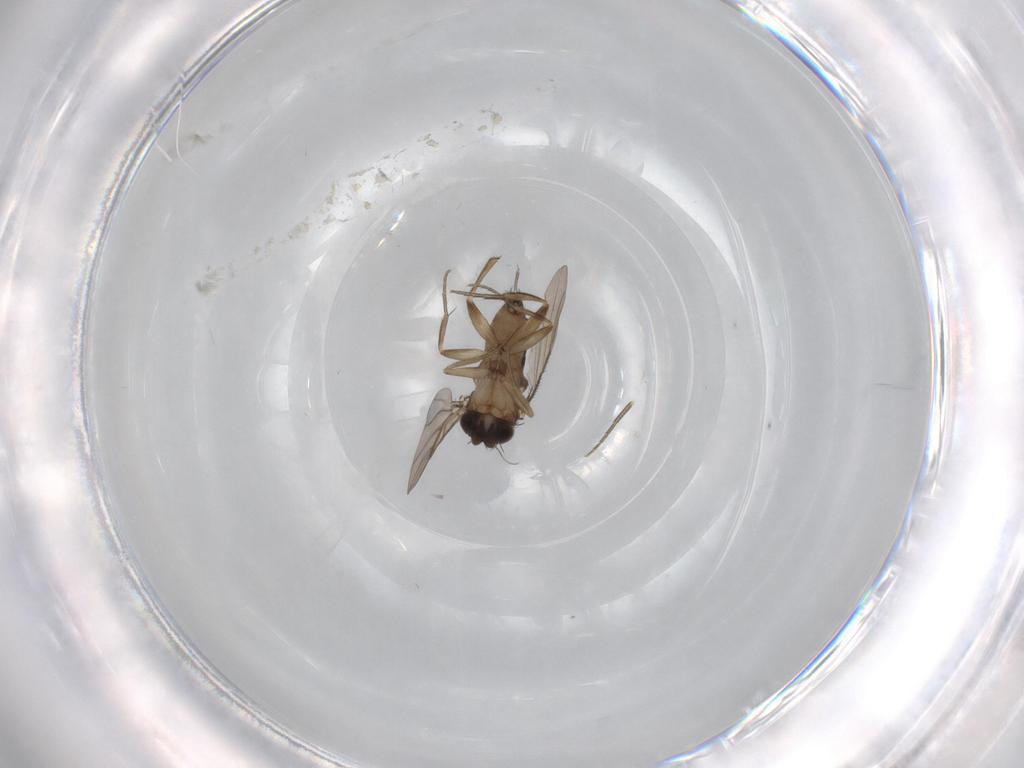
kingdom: Animalia
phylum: Arthropoda
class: Insecta
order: Diptera
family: Phoridae
